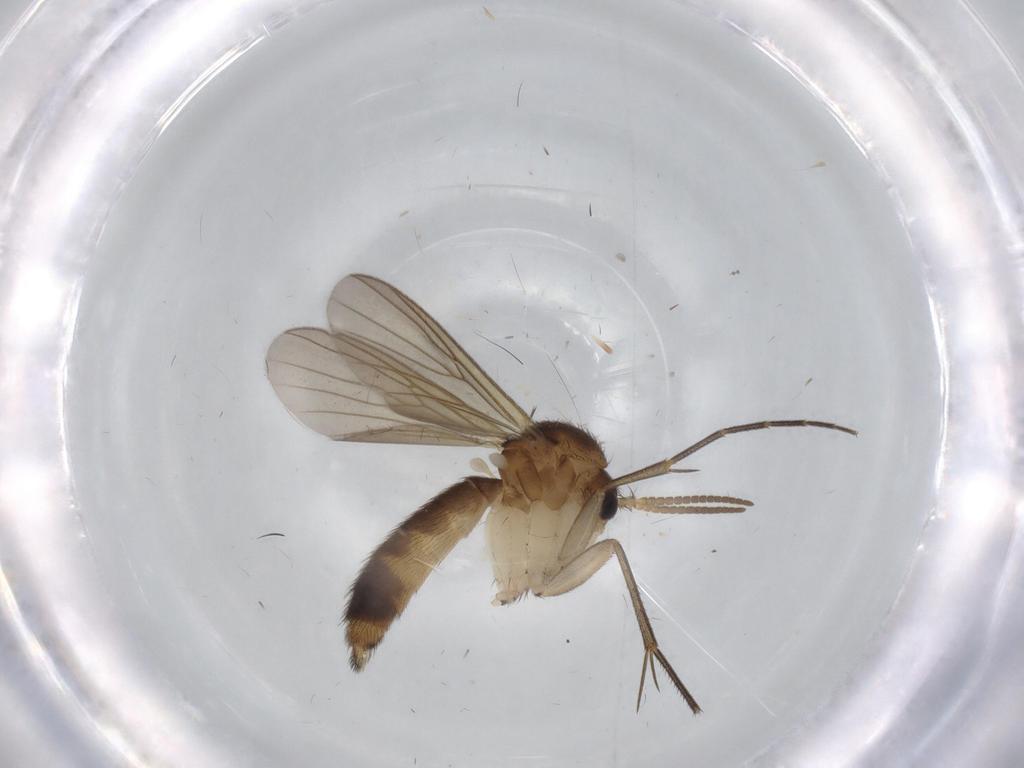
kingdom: Animalia
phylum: Arthropoda
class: Insecta
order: Diptera
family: Mycetophilidae
